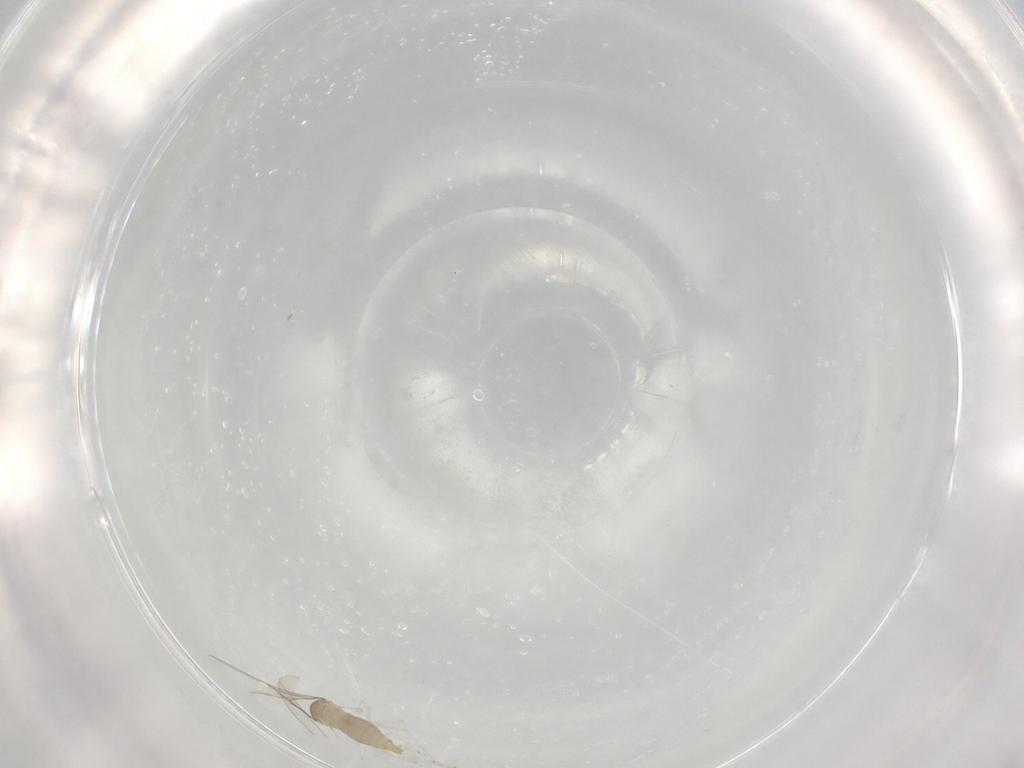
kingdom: Animalia
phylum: Arthropoda
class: Insecta
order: Diptera
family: Cecidomyiidae
